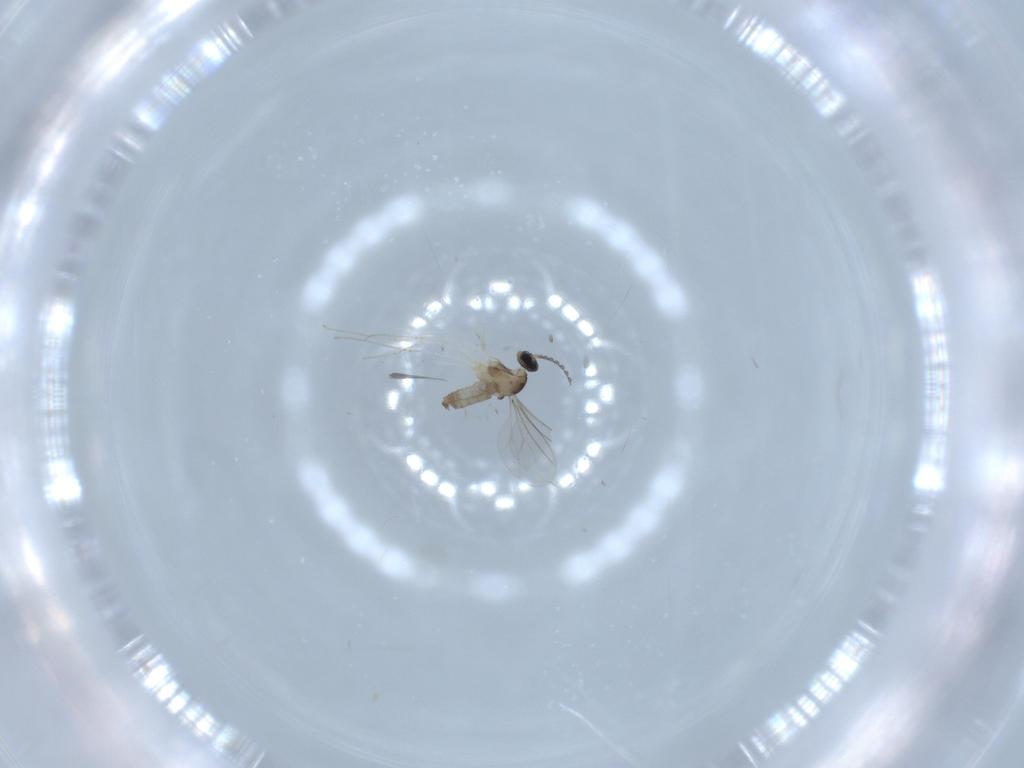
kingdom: Animalia
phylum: Arthropoda
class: Insecta
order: Diptera
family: Cecidomyiidae
